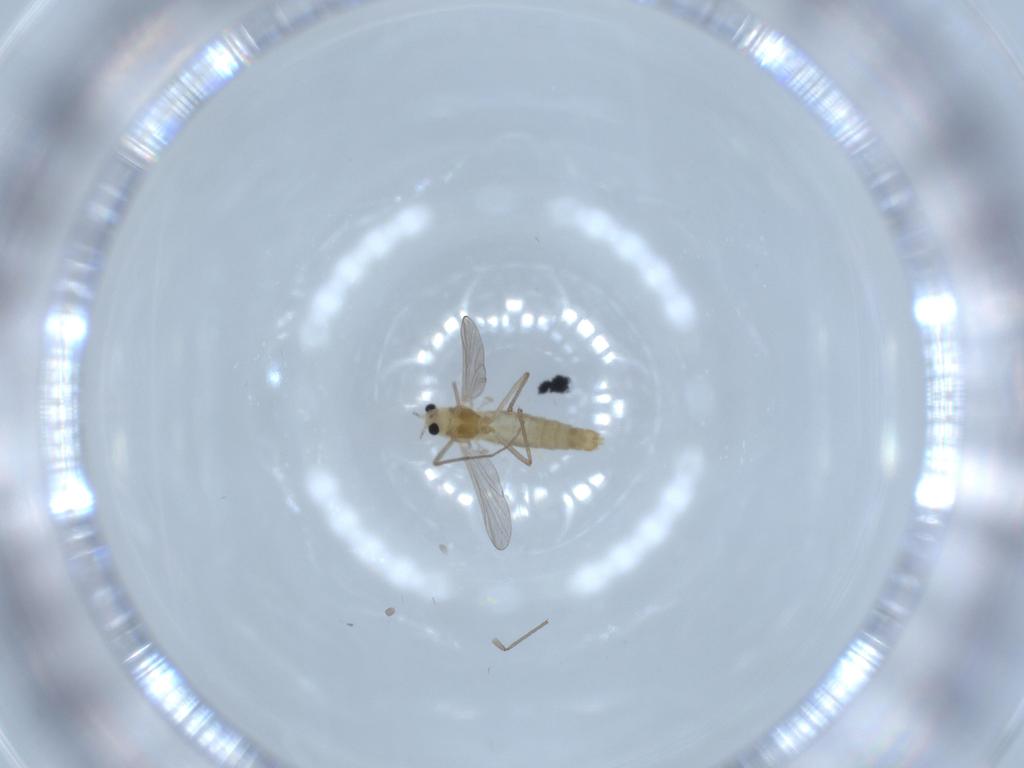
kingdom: Animalia
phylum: Arthropoda
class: Insecta
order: Diptera
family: Chironomidae
